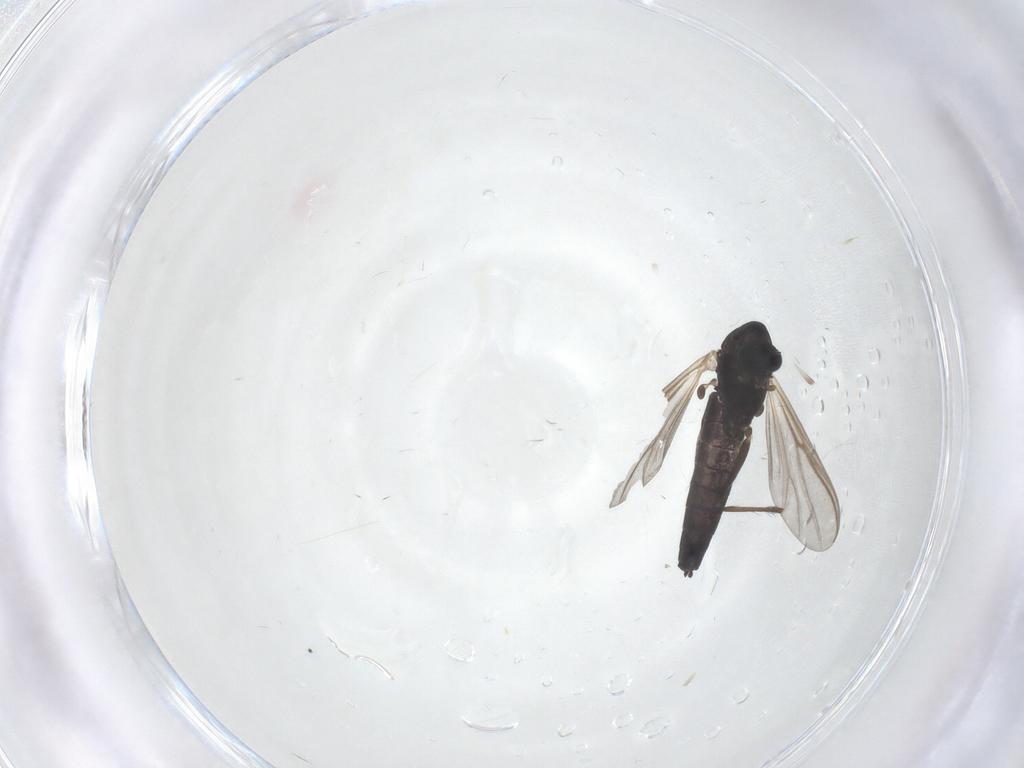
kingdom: Animalia
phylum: Arthropoda
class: Insecta
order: Diptera
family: Chironomidae
